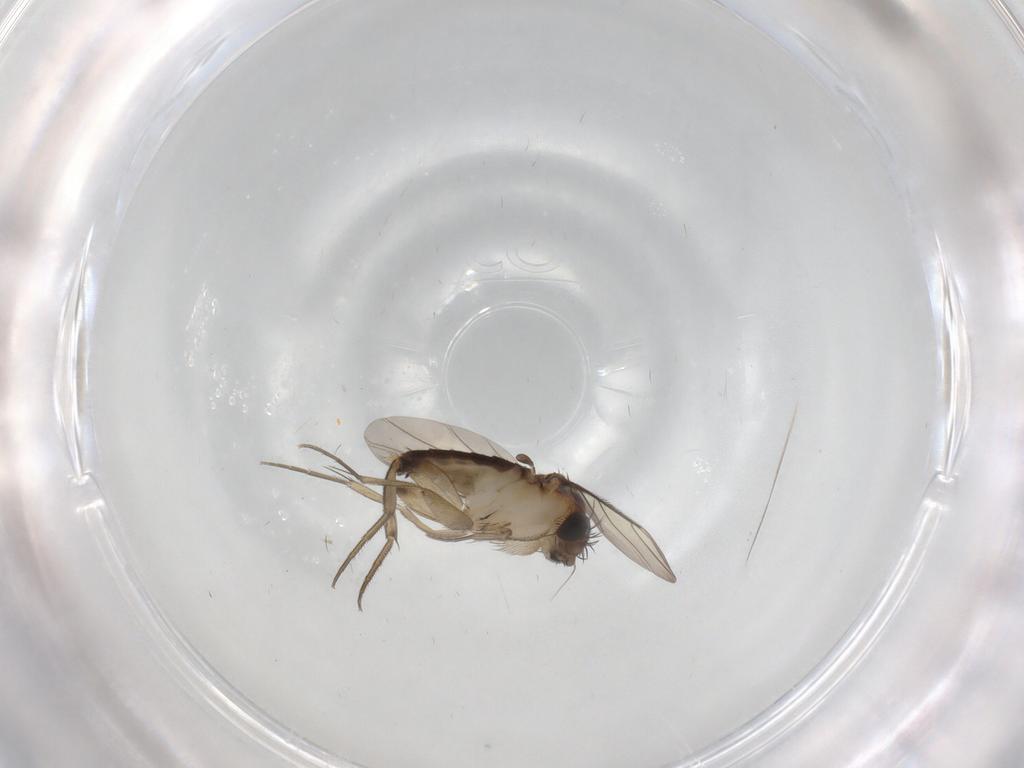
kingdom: Animalia
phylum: Arthropoda
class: Insecta
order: Diptera
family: Phoridae
